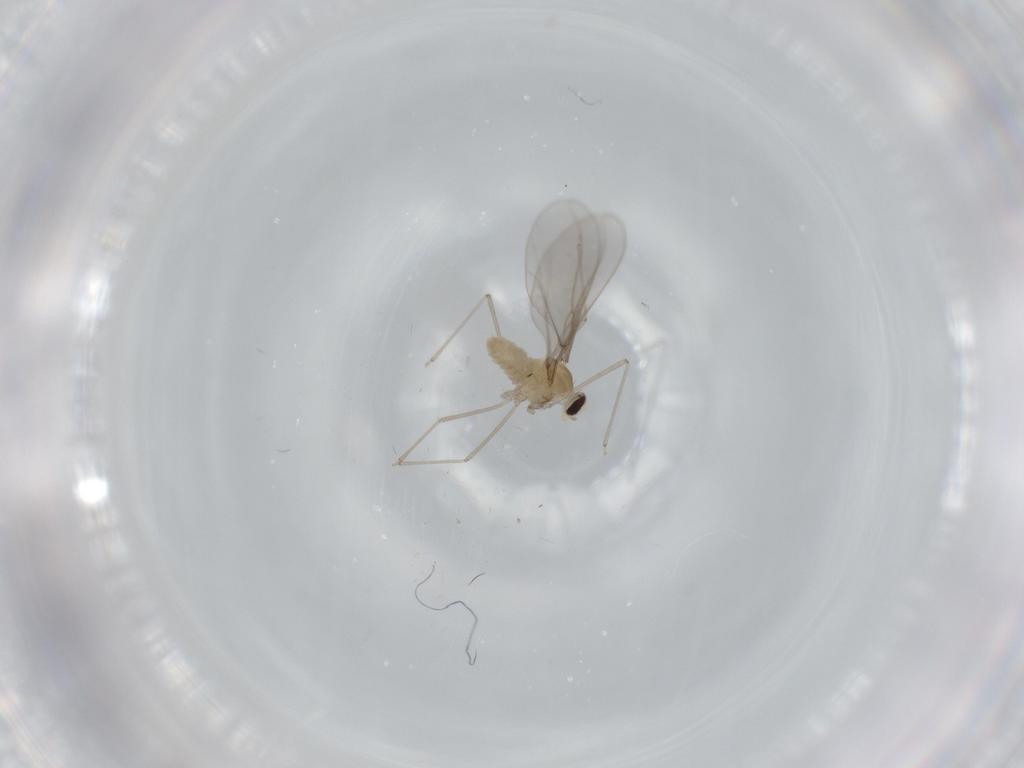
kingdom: Animalia
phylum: Arthropoda
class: Insecta
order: Diptera
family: Cecidomyiidae
